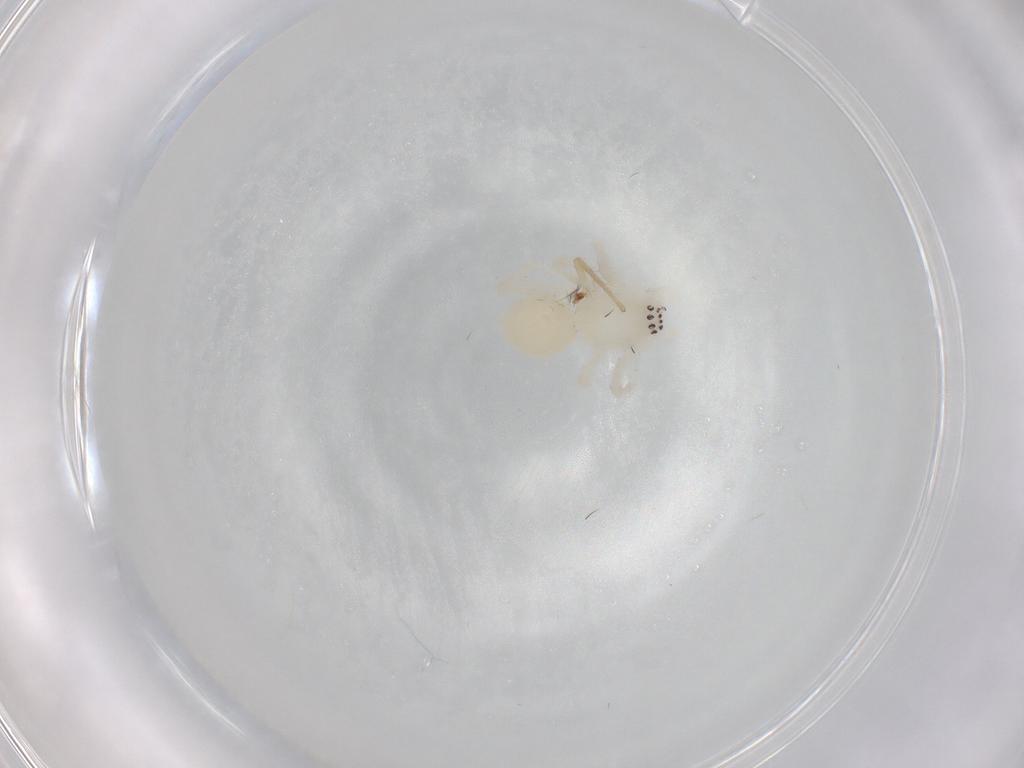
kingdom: Animalia
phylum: Arthropoda
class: Arachnida
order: Araneae
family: Anyphaenidae
